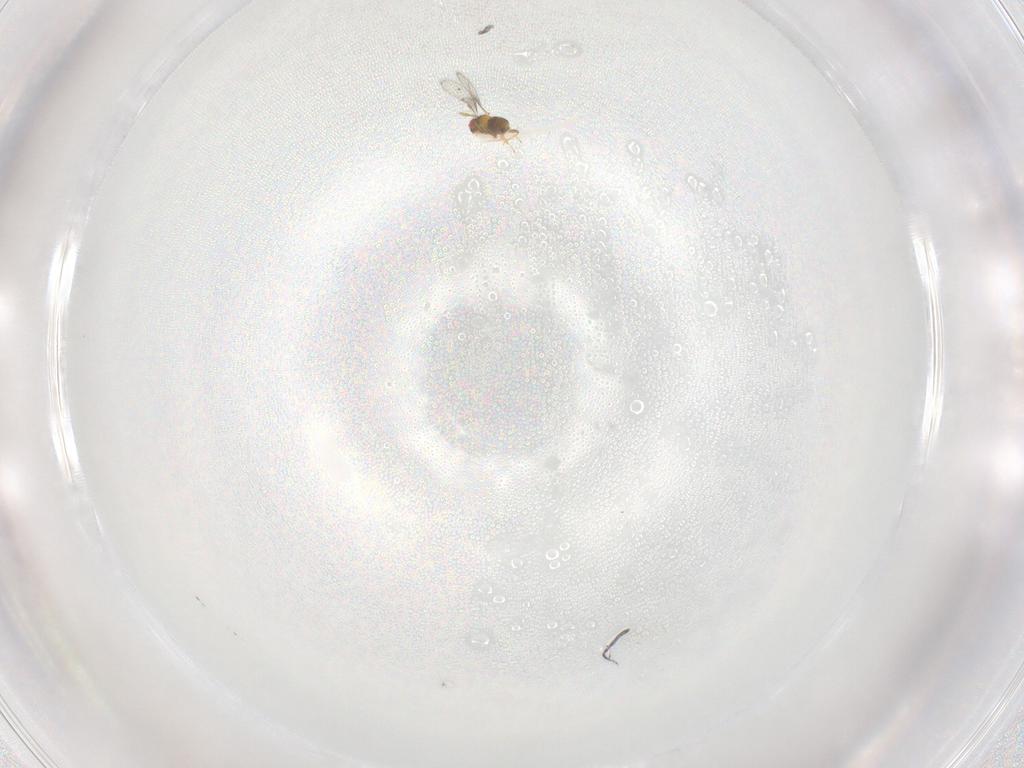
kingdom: Animalia
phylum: Arthropoda
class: Insecta
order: Hymenoptera
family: Trichogrammatidae
